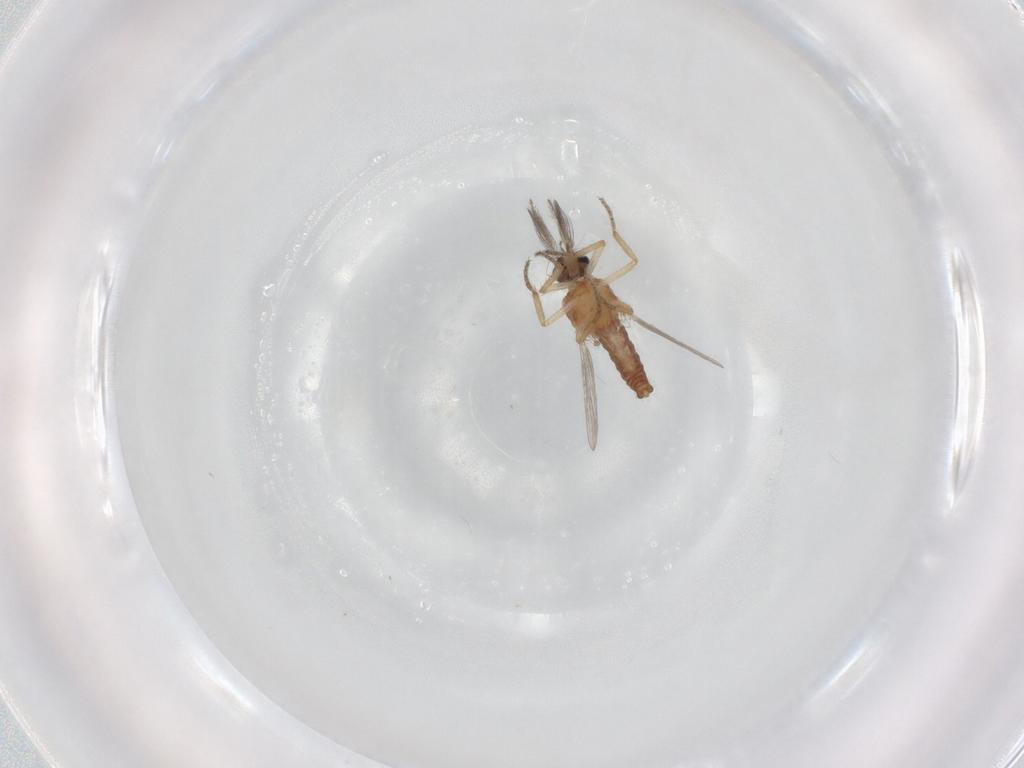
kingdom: Animalia
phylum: Arthropoda
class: Insecta
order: Diptera
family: Ceratopogonidae
